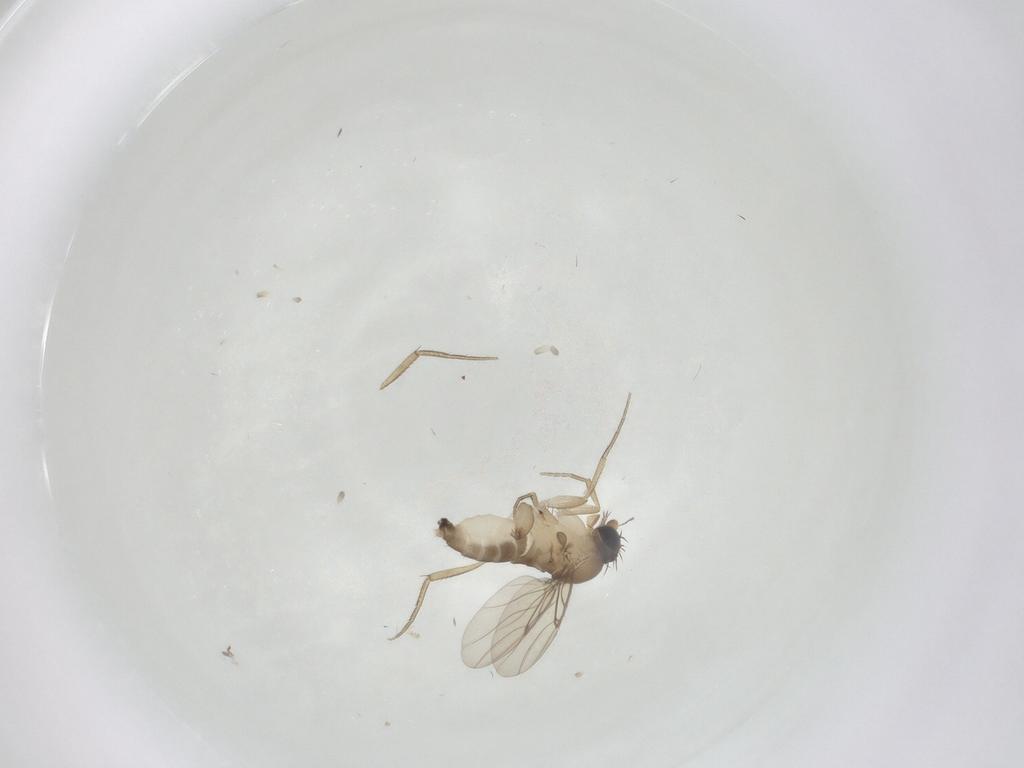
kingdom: Animalia
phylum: Arthropoda
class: Insecta
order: Diptera
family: Phoridae
